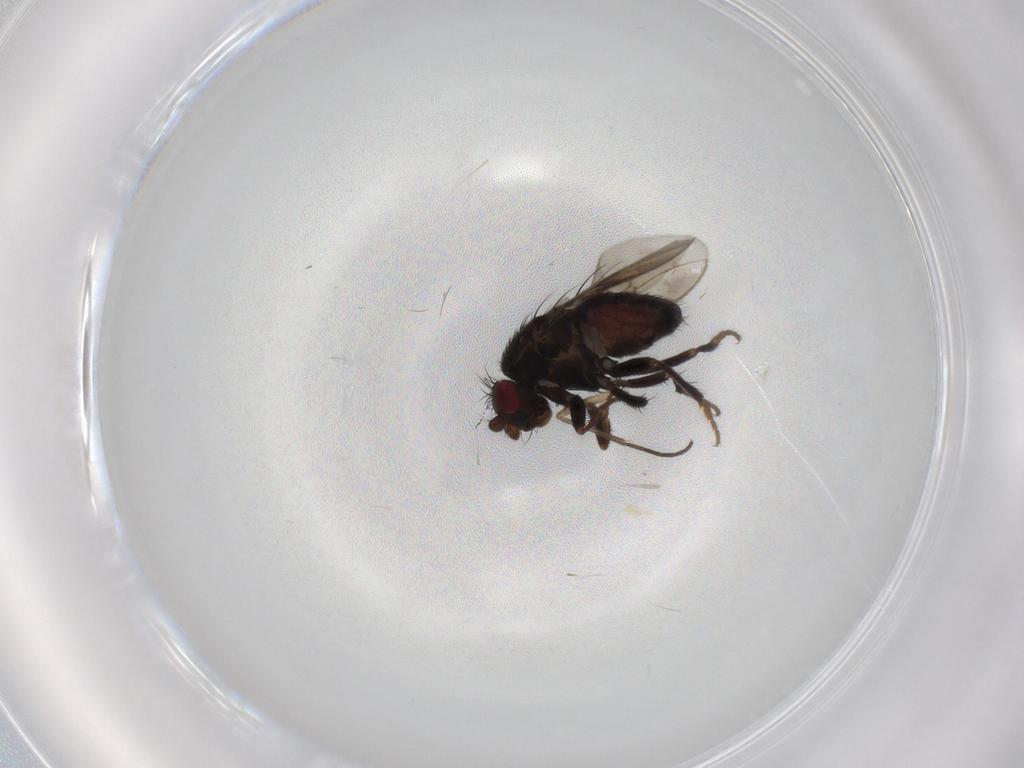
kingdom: Animalia
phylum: Arthropoda
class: Insecta
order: Diptera
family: Sphaeroceridae
